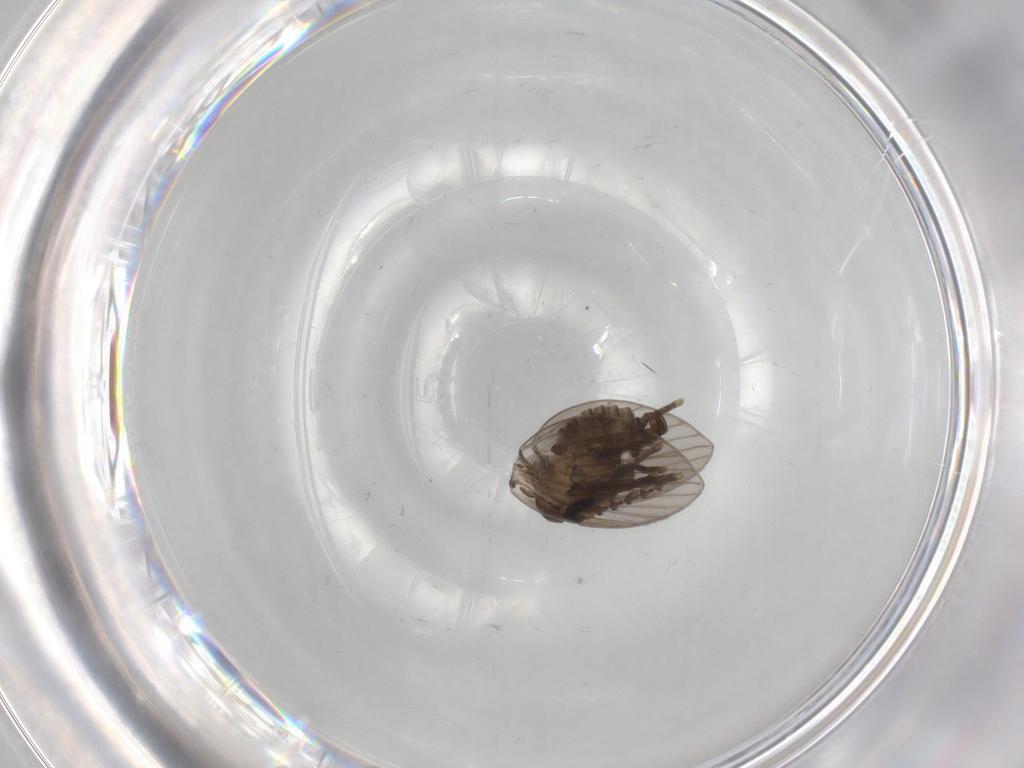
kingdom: Animalia
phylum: Arthropoda
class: Insecta
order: Diptera
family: Psychodidae
